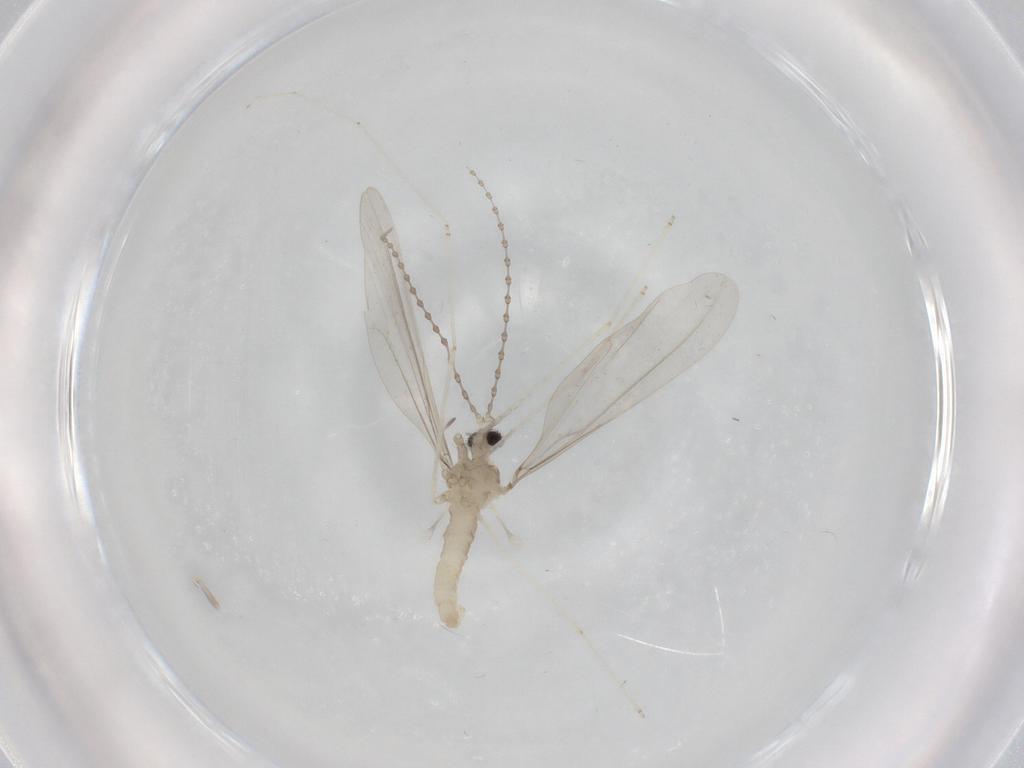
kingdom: Animalia
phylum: Arthropoda
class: Insecta
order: Diptera
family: Cecidomyiidae
